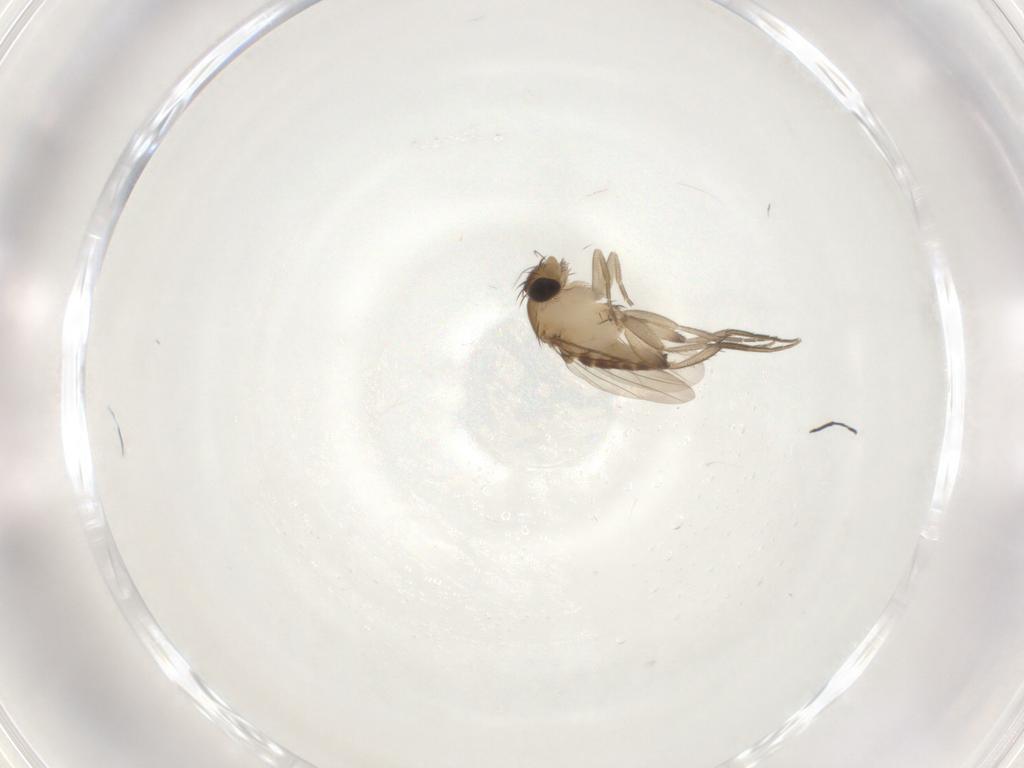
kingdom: Animalia
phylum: Arthropoda
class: Insecta
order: Diptera
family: Phoridae
